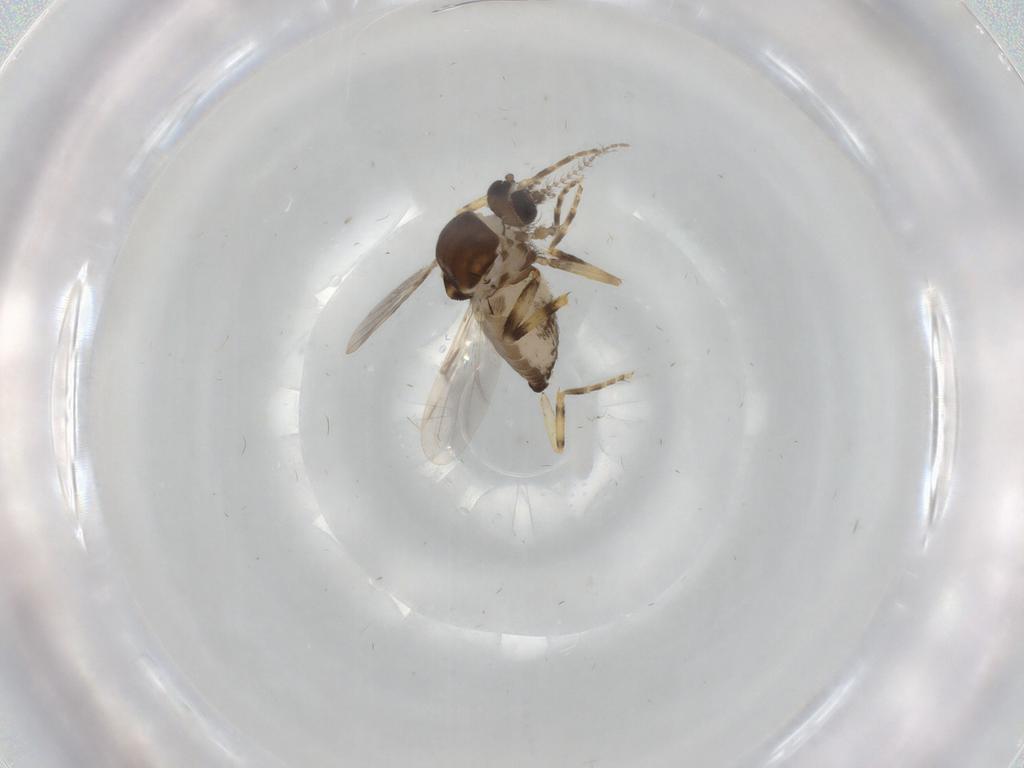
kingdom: Animalia
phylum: Arthropoda
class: Insecta
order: Diptera
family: Ceratopogonidae
